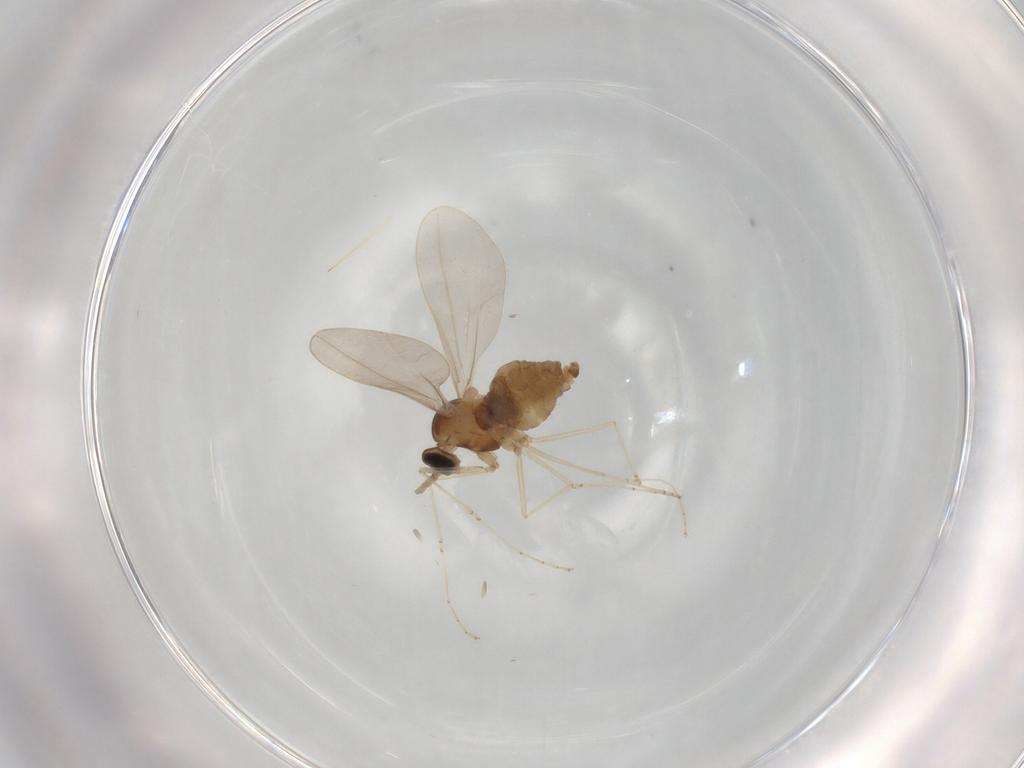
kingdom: Animalia
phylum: Arthropoda
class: Insecta
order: Diptera
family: Cecidomyiidae
